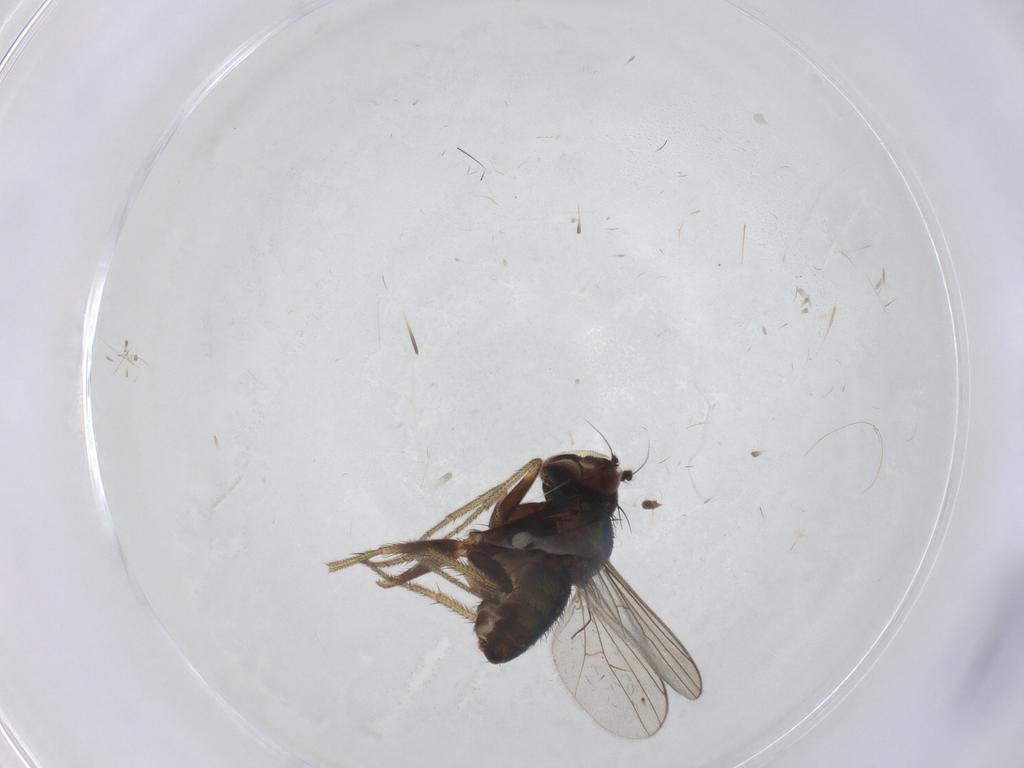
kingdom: Animalia
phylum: Arthropoda
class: Insecta
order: Diptera
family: Dolichopodidae
